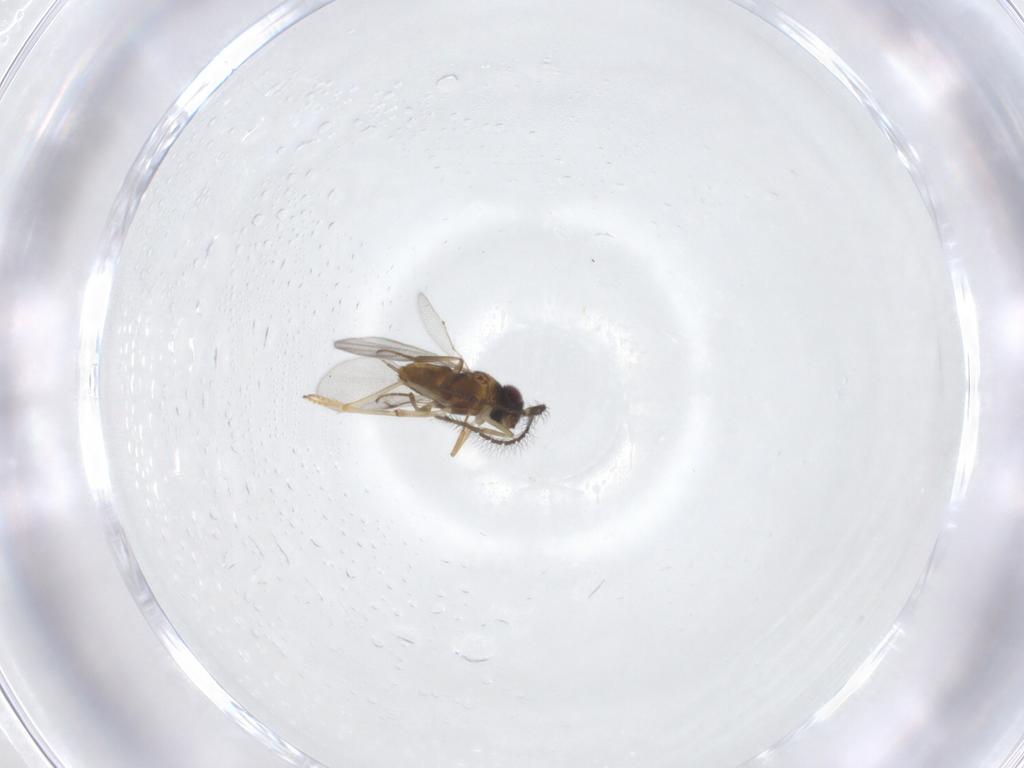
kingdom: Animalia
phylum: Arthropoda
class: Insecta
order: Hymenoptera
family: Encyrtidae
